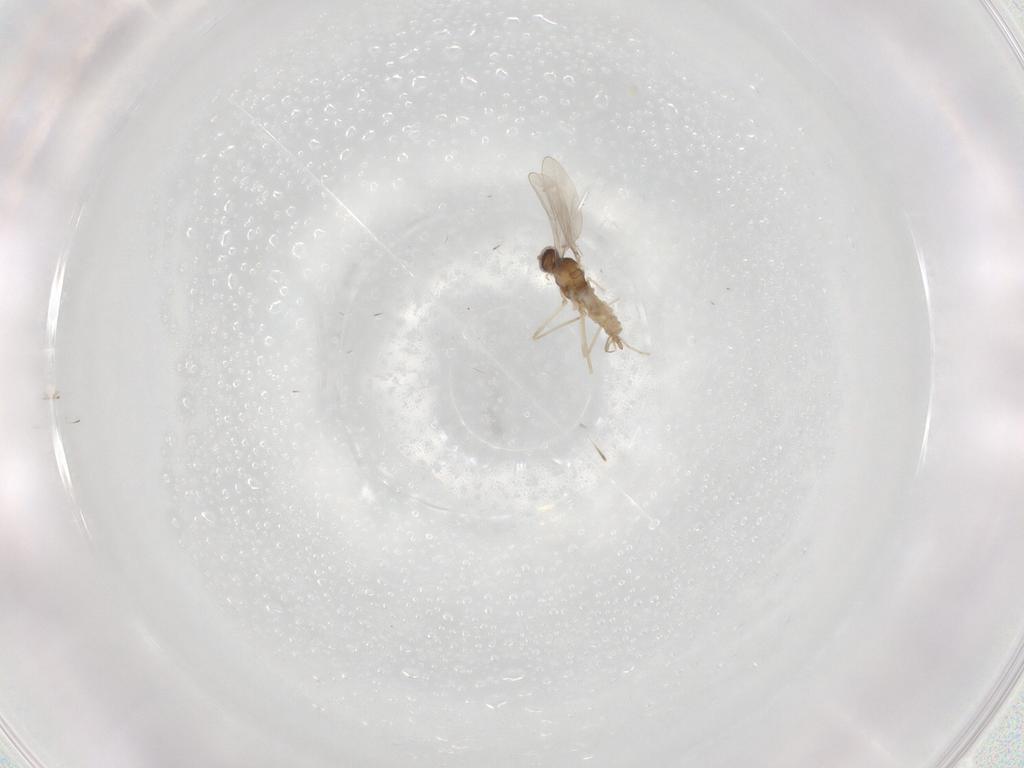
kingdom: Animalia
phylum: Arthropoda
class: Insecta
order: Diptera
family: Cecidomyiidae
